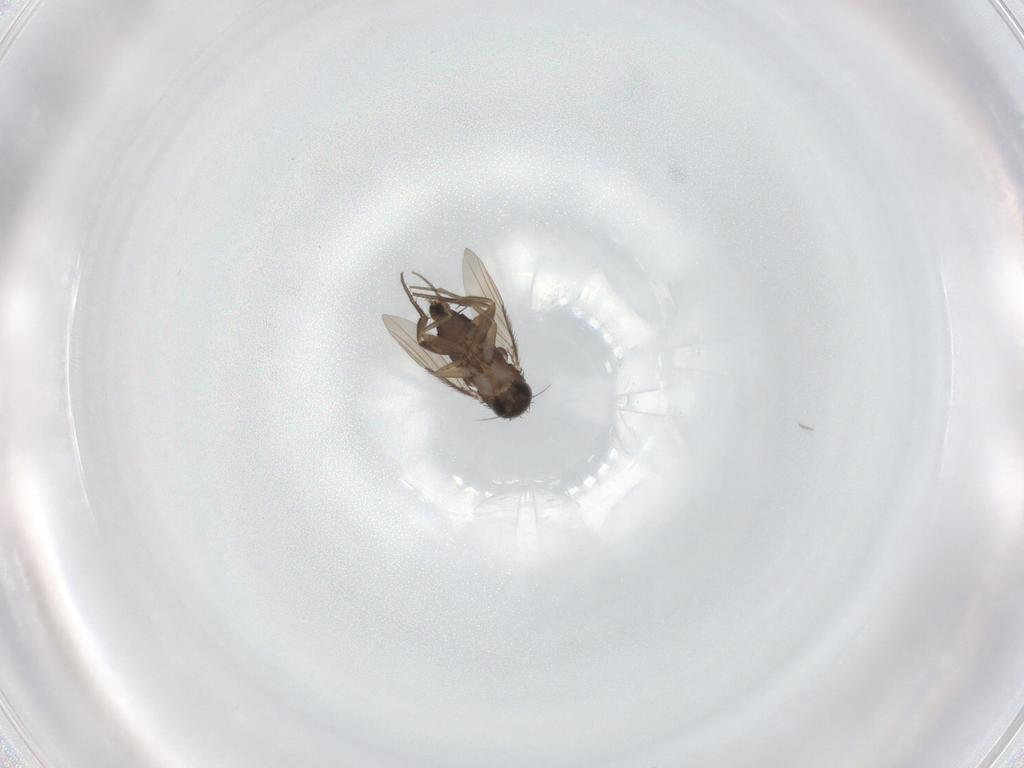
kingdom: Animalia
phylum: Arthropoda
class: Insecta
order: Diptera
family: Phoridae
